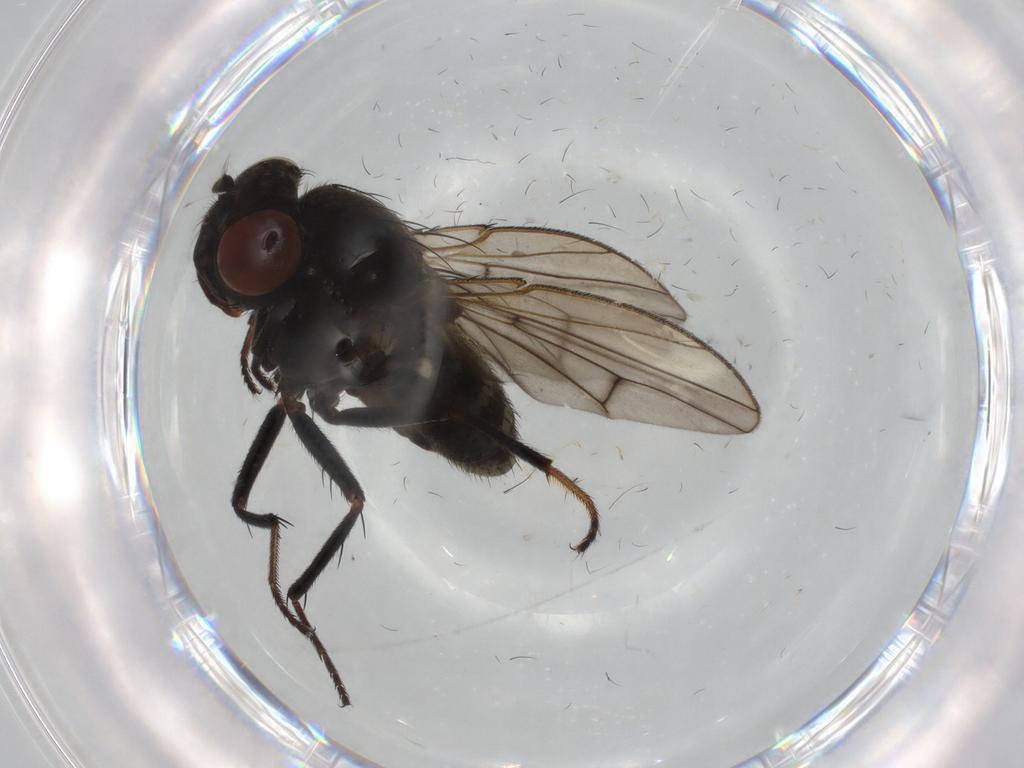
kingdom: Animalia
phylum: Arthropoda
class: Insecta
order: Diptera
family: Ephydridae
